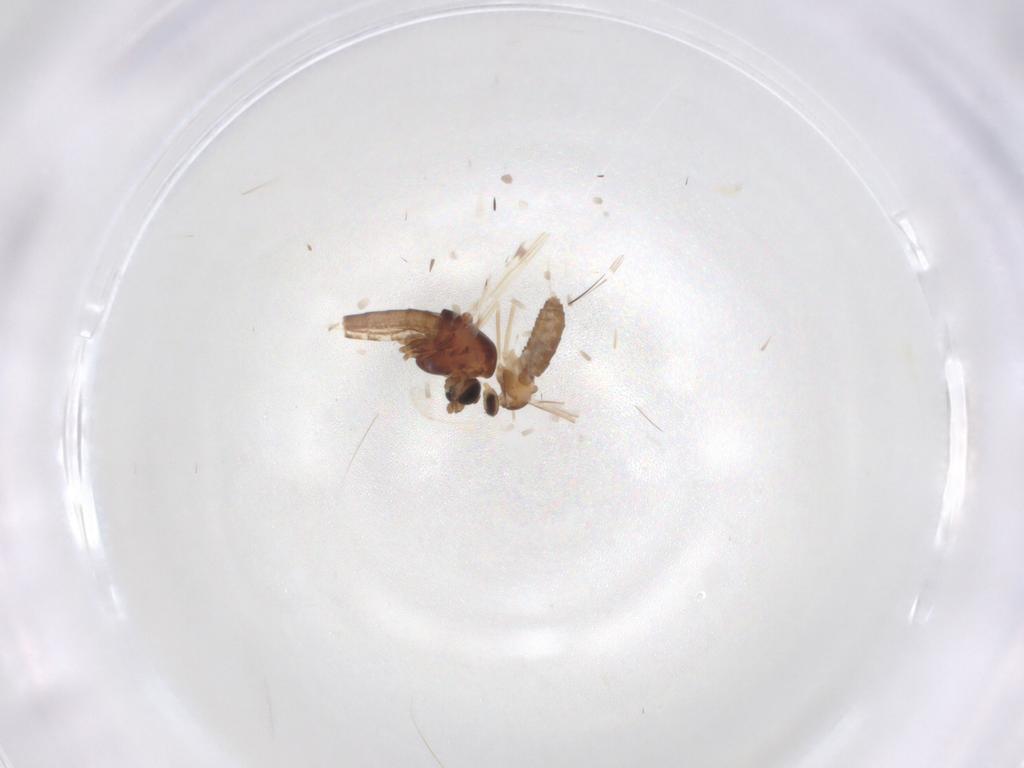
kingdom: Animalia
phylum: Arthropoda
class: Insecta
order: Diptera
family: Cecidomyiidae
